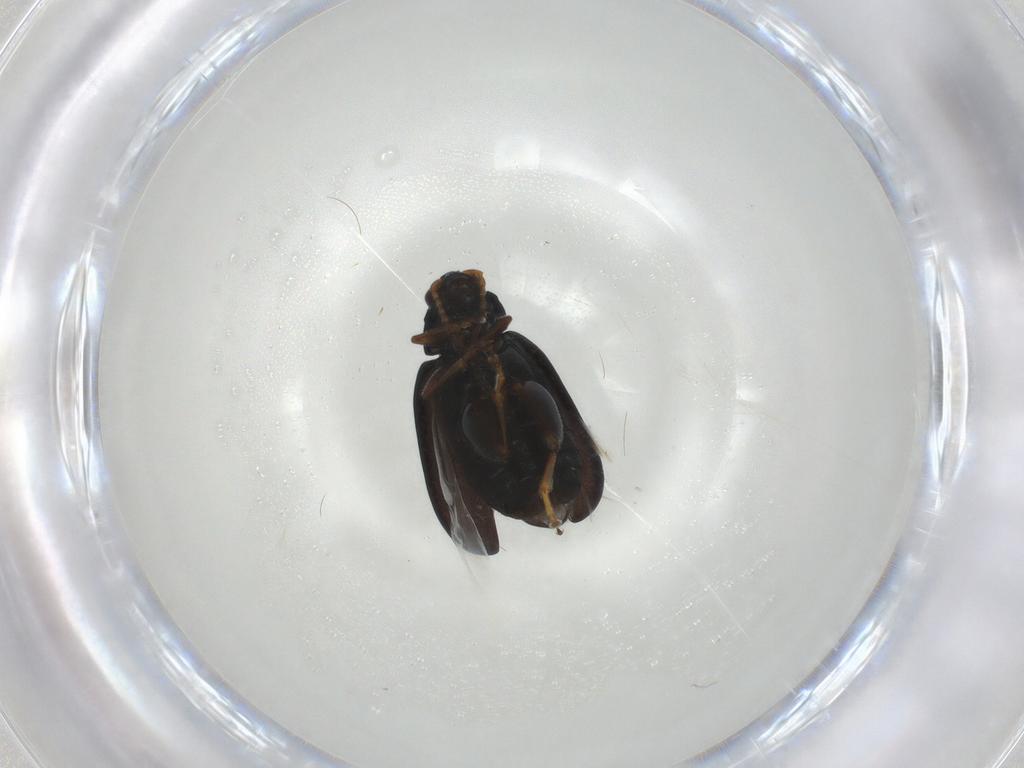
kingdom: Animalia
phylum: Arthropoda
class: Insecta
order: Coleoptera
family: Chrysomelidae
